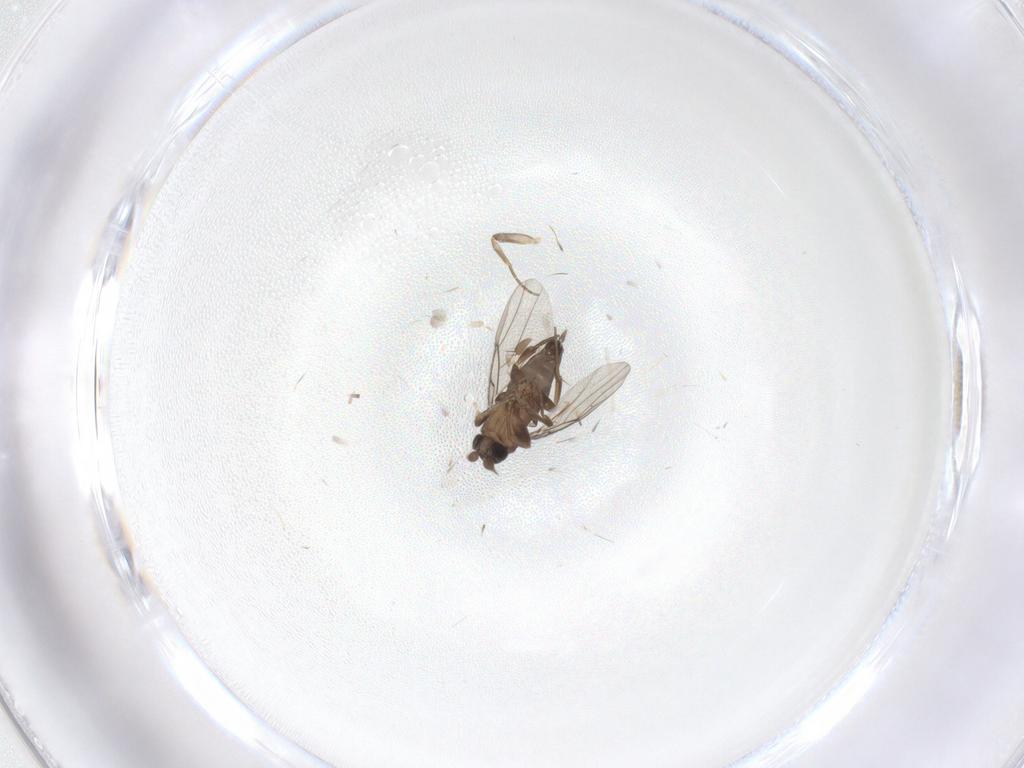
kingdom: Animalia
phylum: Arthropoda
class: Insecta
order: Diptera
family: Phoridae
